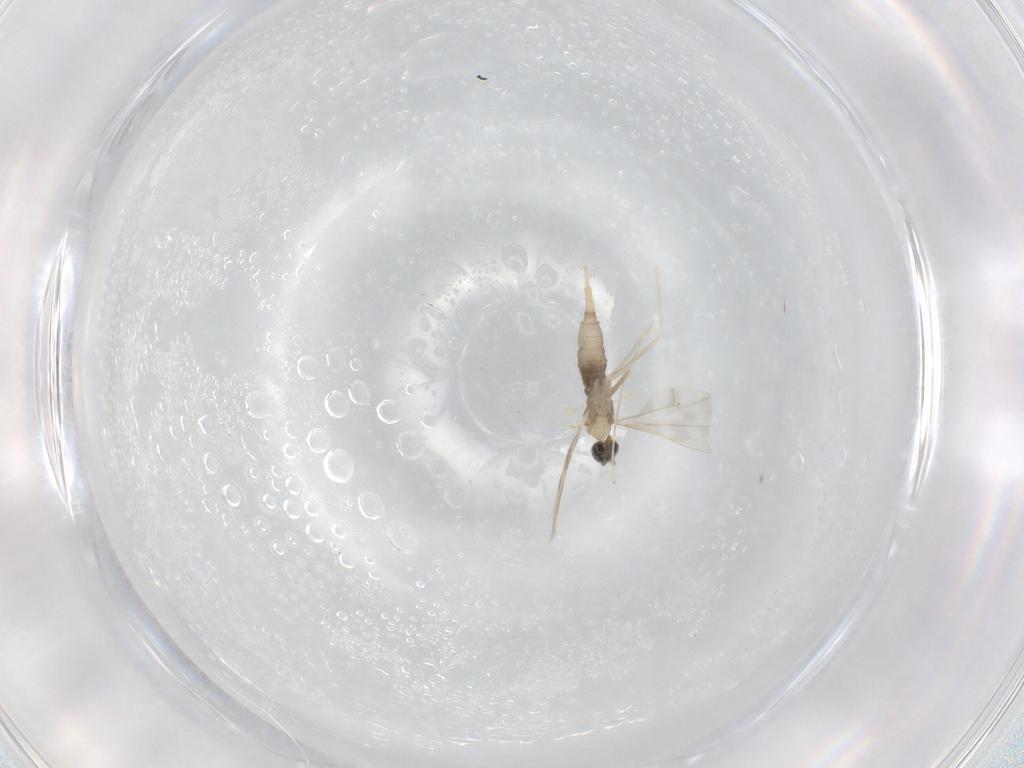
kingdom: Animalia
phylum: Arthropoda
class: Insecta
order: Diptera
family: Cecidomyiidae
